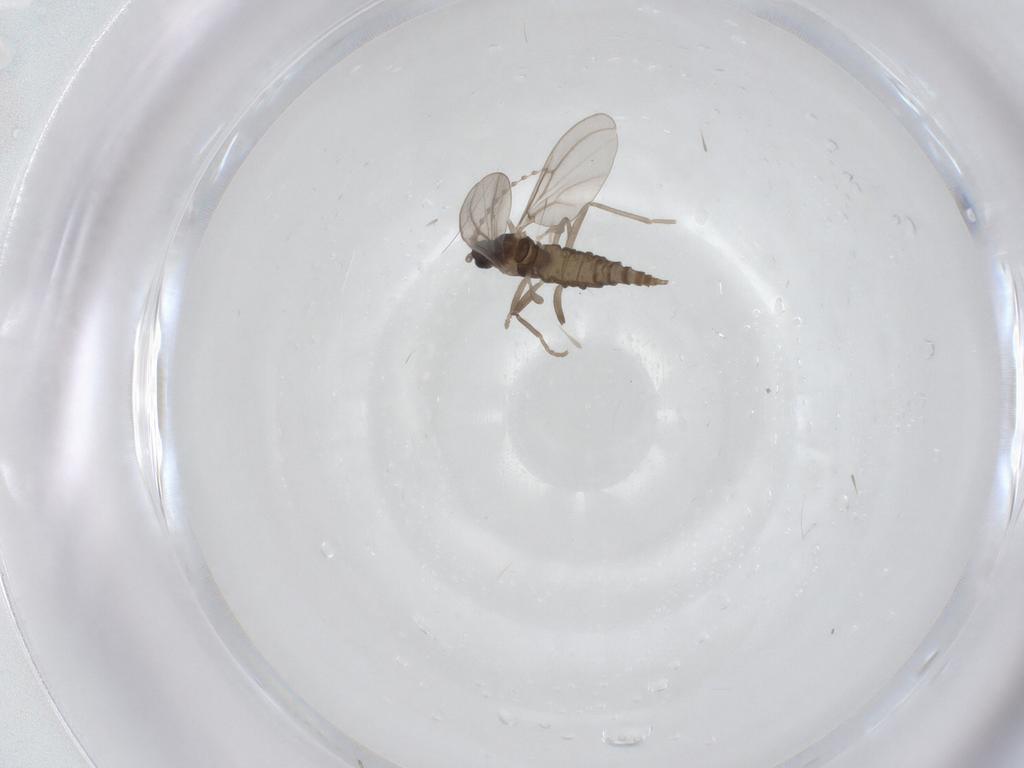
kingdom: Animalia
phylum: Arthropoda
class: Insecta
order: Diptera
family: Cecidomyiidae
